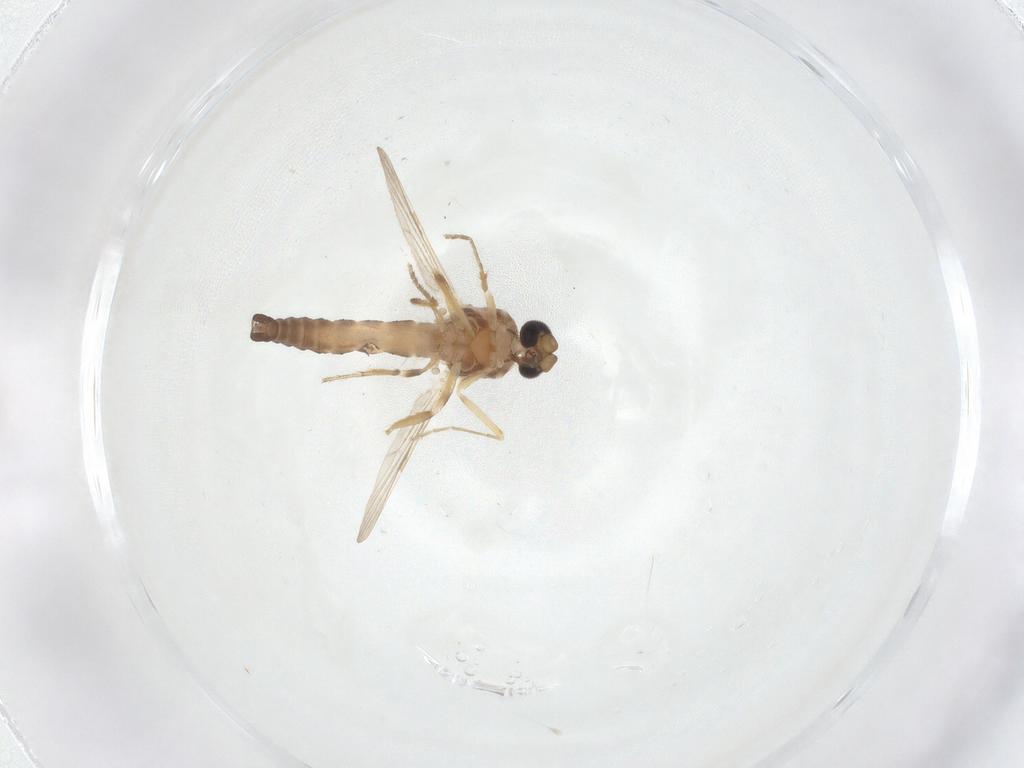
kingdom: Animalia
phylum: Arthropoda
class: Insecta
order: Diptera
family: Ceratopogonidae
